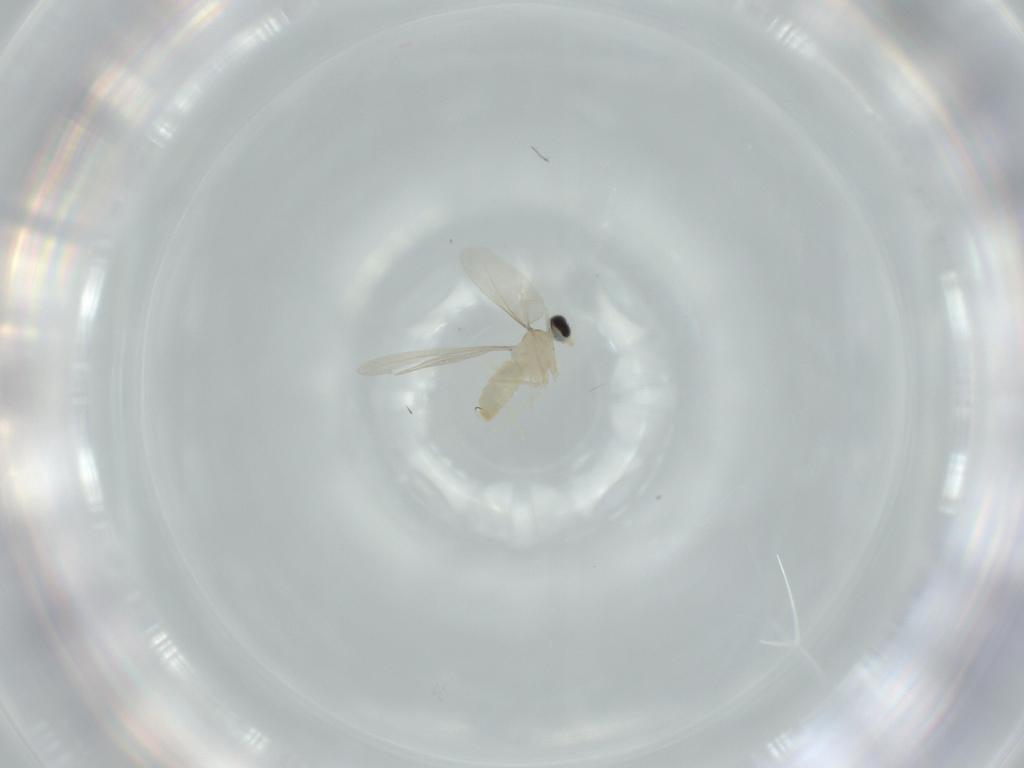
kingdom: Animalia
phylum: Arthropoda
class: Insecta
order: Diptera
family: Cecidomyiidae
